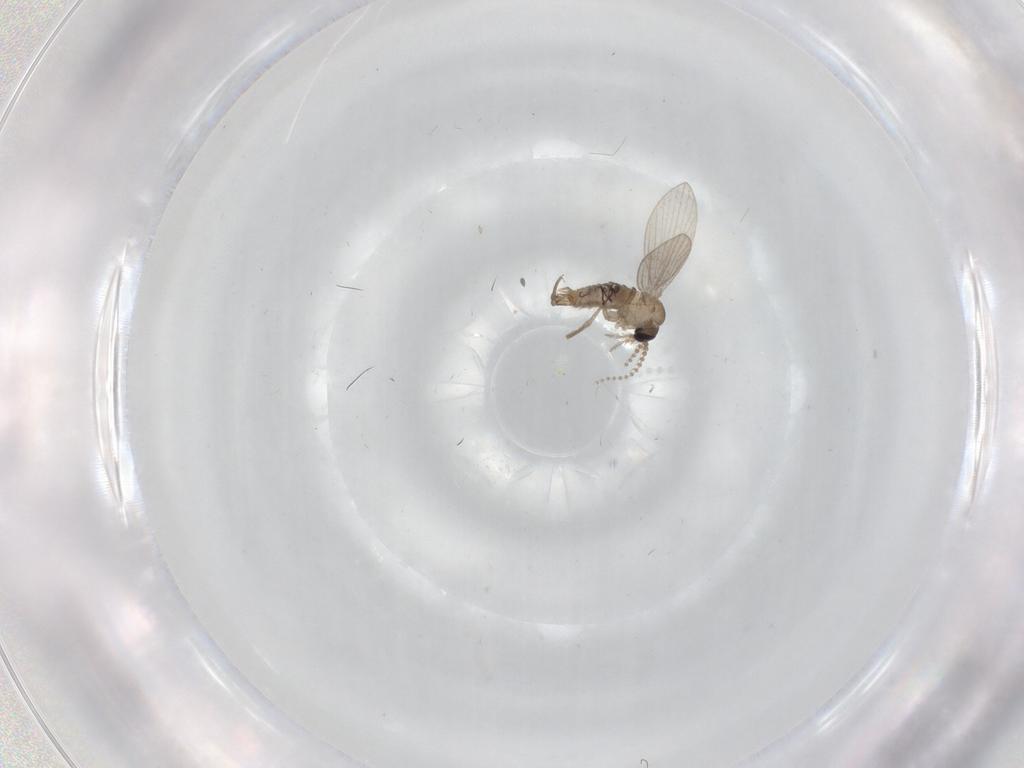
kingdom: Animalia
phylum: Arthropoda
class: Insecta
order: Diptera
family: Psychodidae
